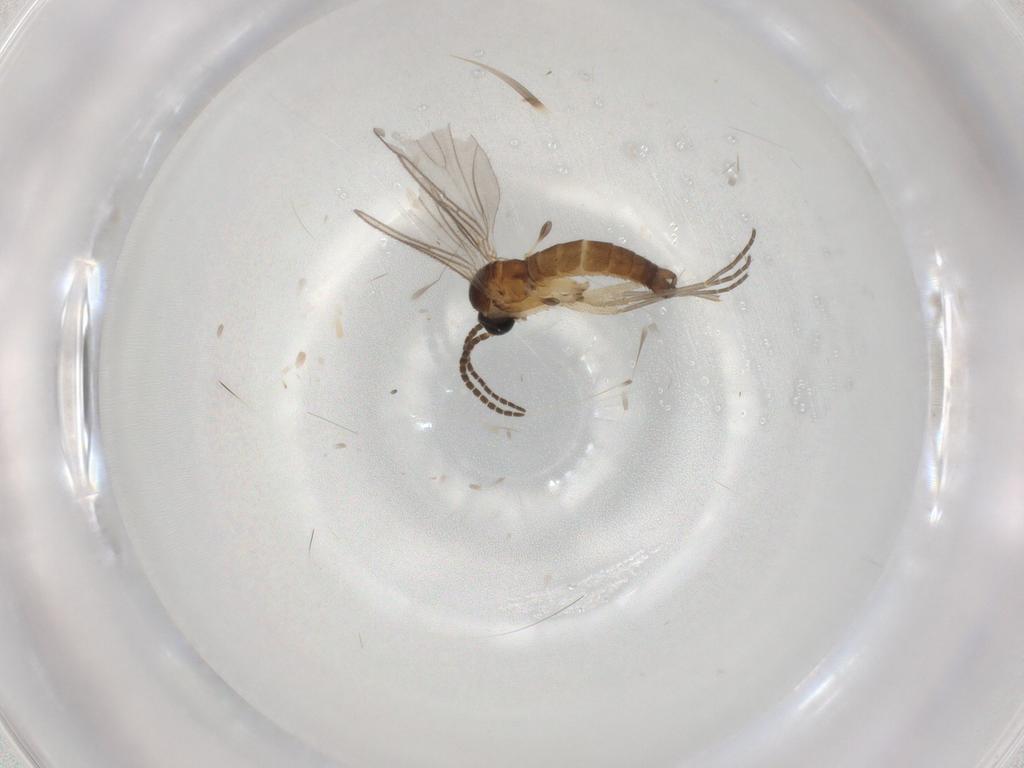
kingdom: Animalia
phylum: Arthropoda
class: Insecta
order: Diptera
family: Sciaridae
